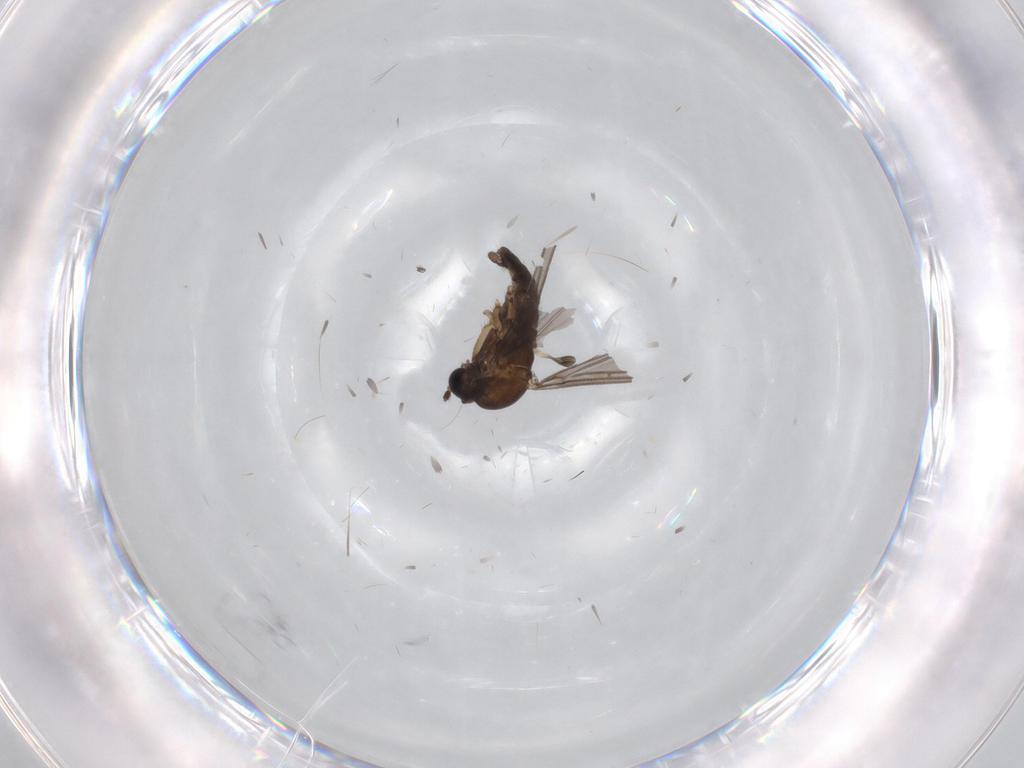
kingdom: Animalia
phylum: Arthropoda
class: Insecta
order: Diptera
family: Sciaridae
